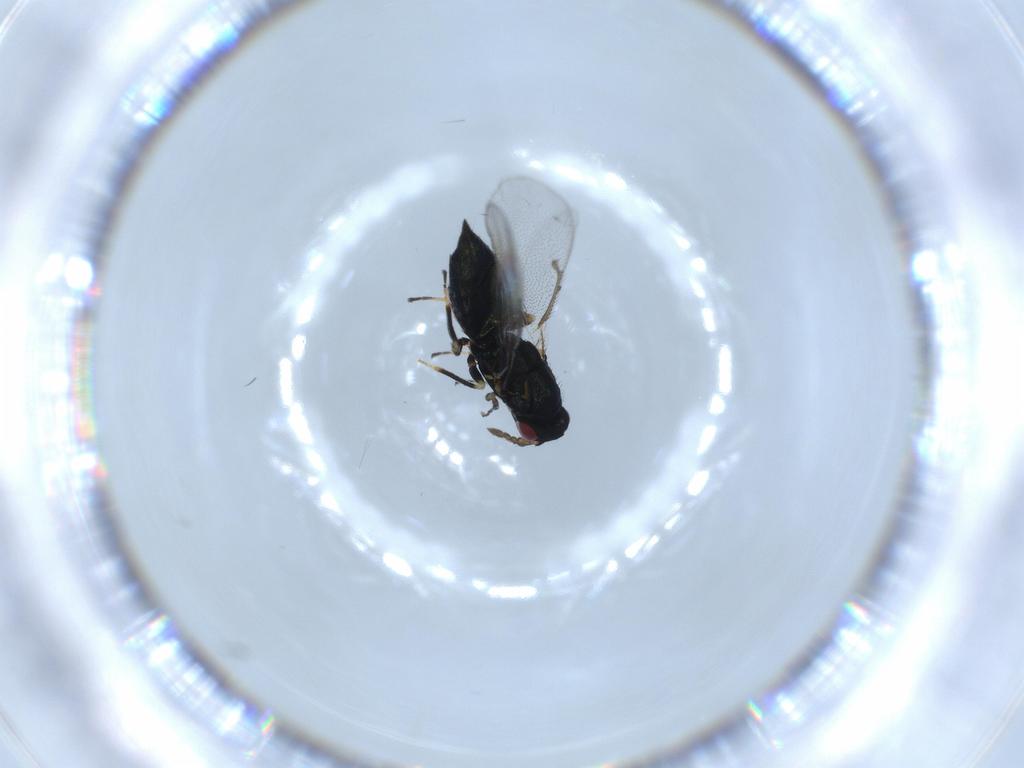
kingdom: Animalia
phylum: Arthropoda
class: Insecta
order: Hymenoptera
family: Eulophidae
